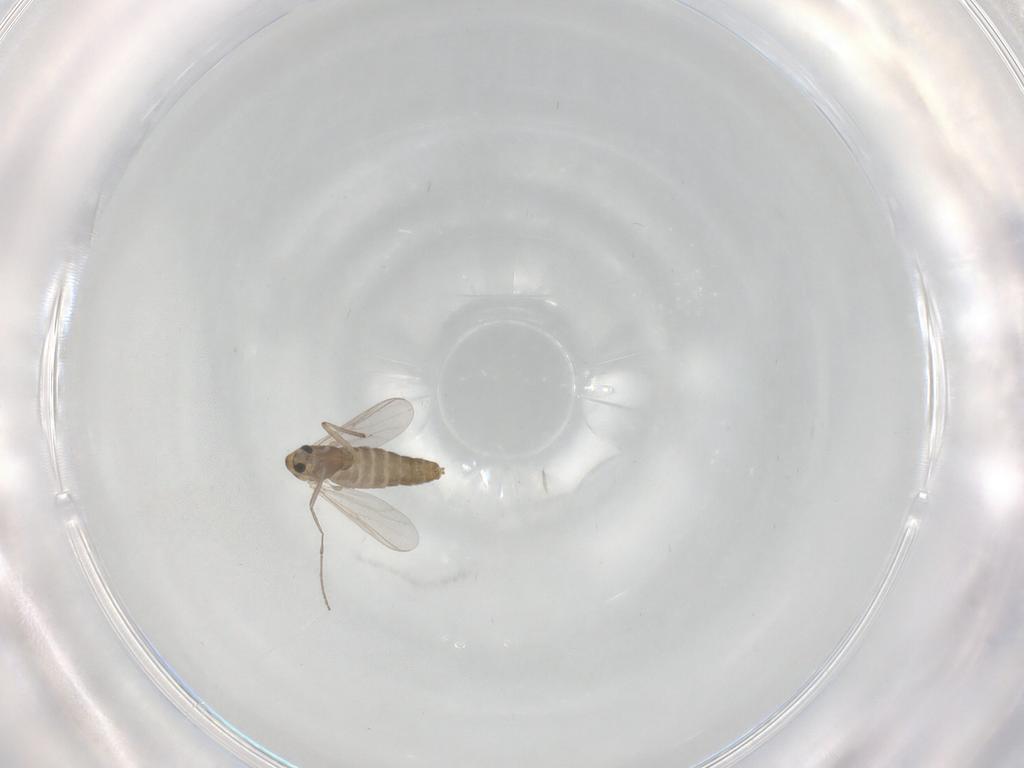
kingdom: Animalia
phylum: Arthropoda
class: Insecta
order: Diptera
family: Chironomidae
